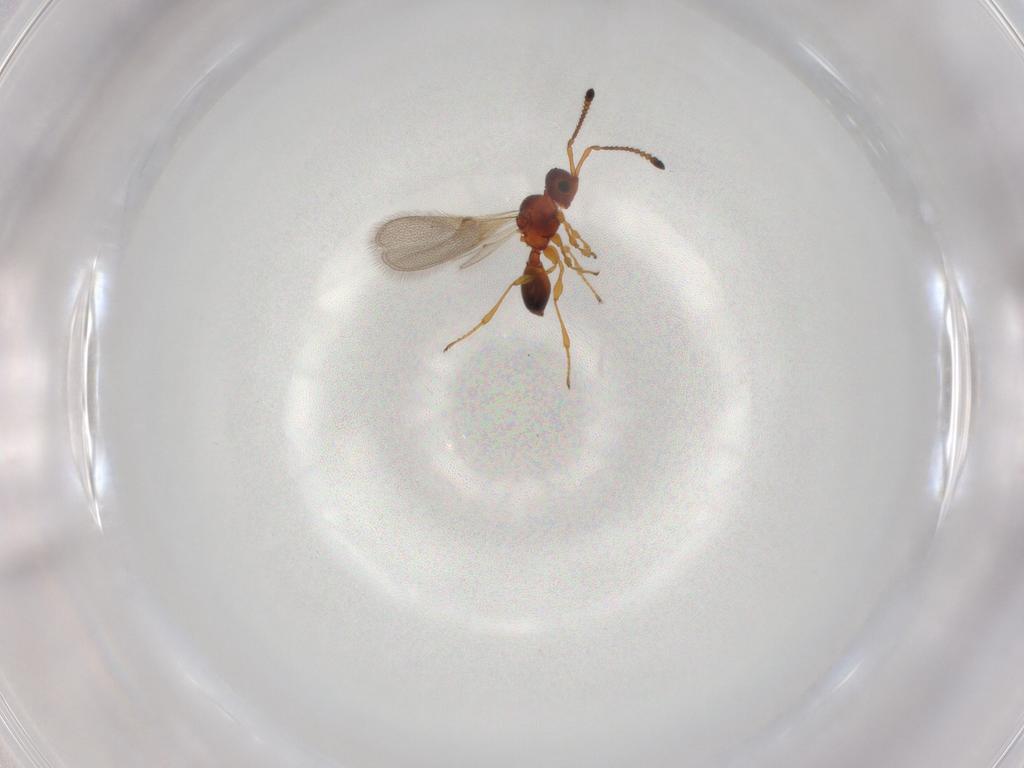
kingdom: Animalia
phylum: Arthropoda
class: Insecta
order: Hymenoptera
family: Diapriidae
